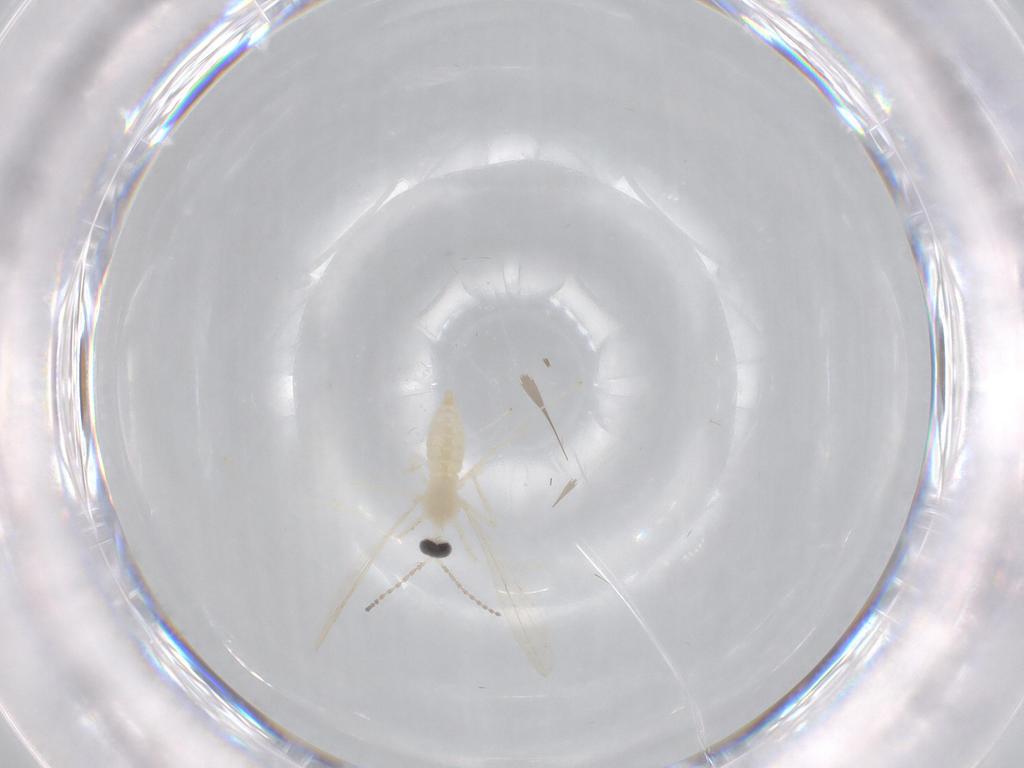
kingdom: Animalia
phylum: Arthropoda
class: Insecta
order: Diptera
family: Cecidomyiidae
